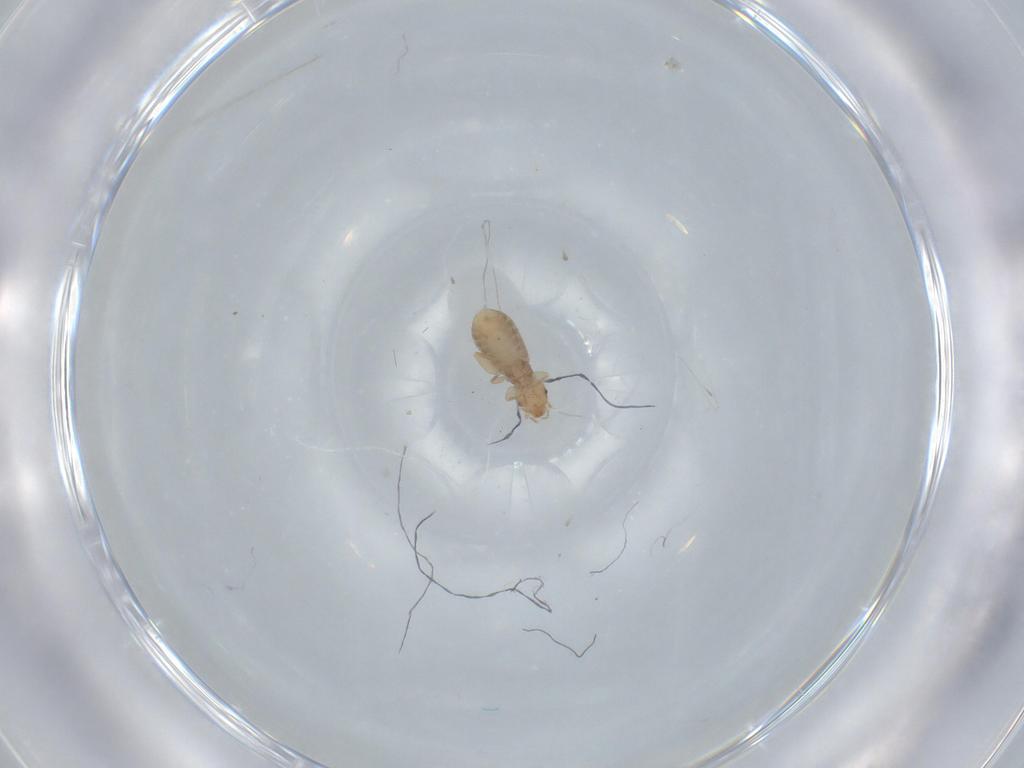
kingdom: Animalia
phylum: Arthropoda
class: Insecta
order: Psocodea
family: Liposcelididae
